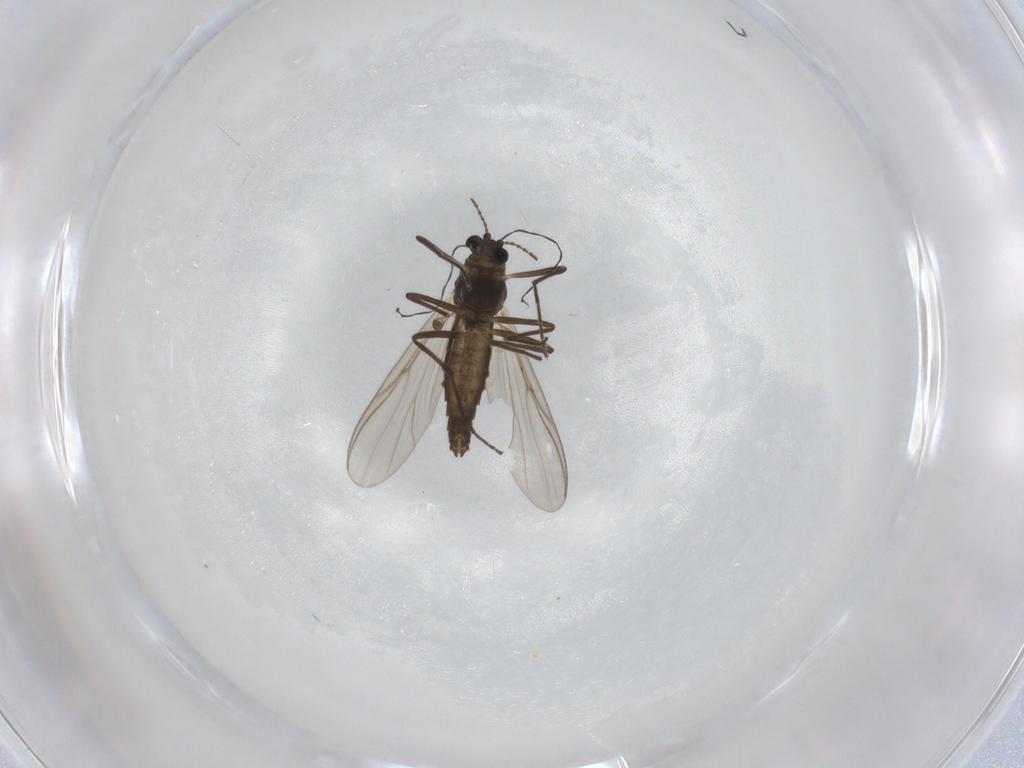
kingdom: Animalia
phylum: Arthropoda
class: Insecta
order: Diptera
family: Chironomidae
